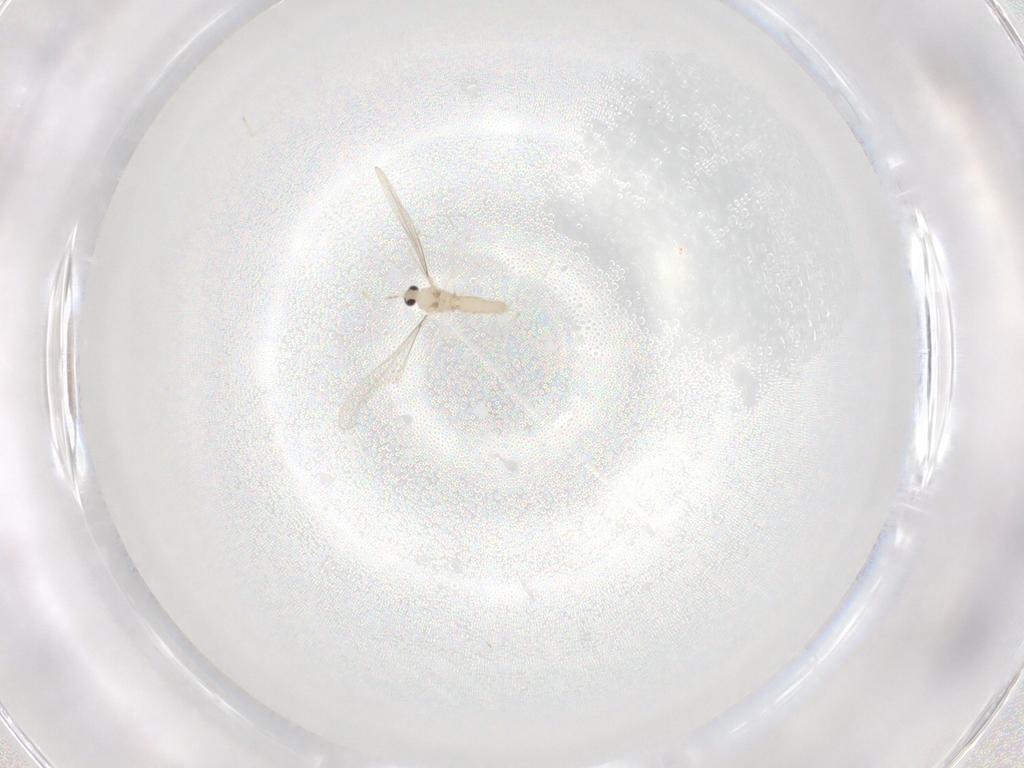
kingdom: Animalia
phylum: Arthropoda
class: Insecta
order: Diptera
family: Cecidomyiidae
